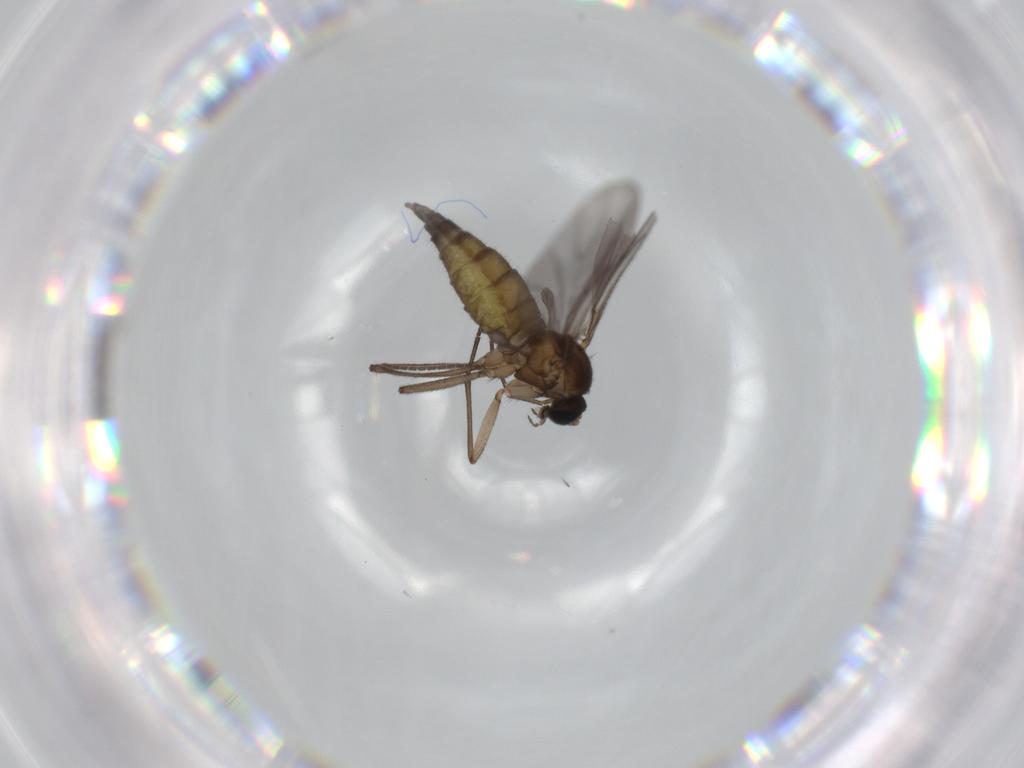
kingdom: Animalia
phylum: Arthropoda
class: Insecta
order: Diptera
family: Sciaridae
